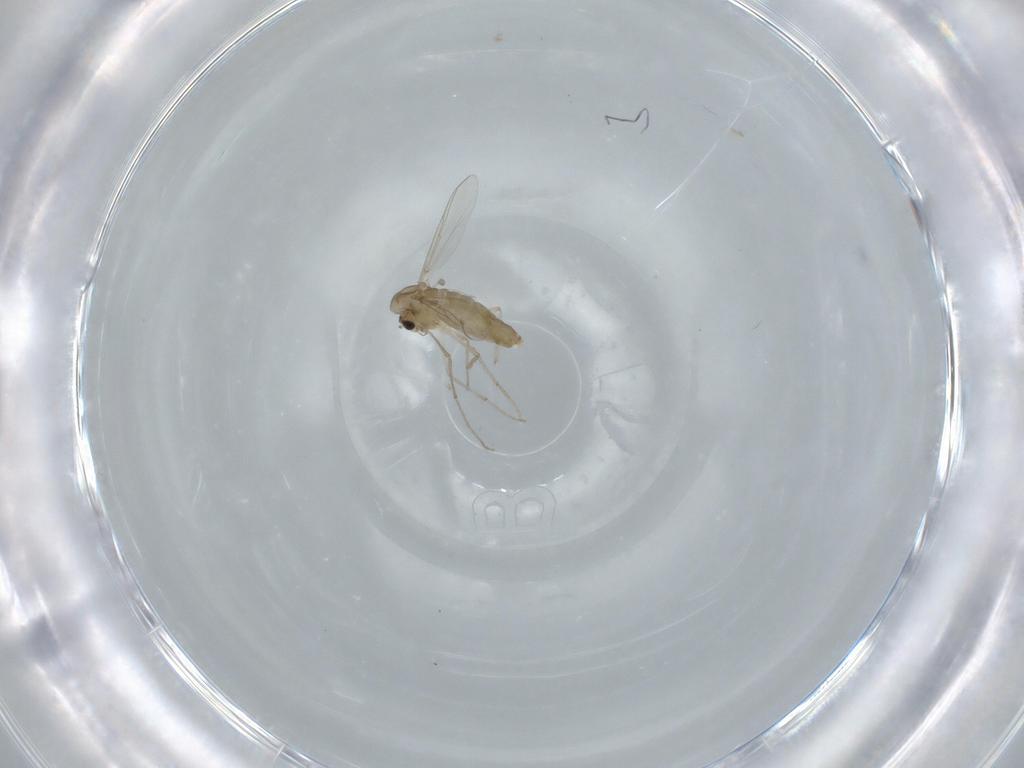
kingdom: Animalia
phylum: Arthropoda
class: Insecta
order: Diptera
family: Chironomidae
